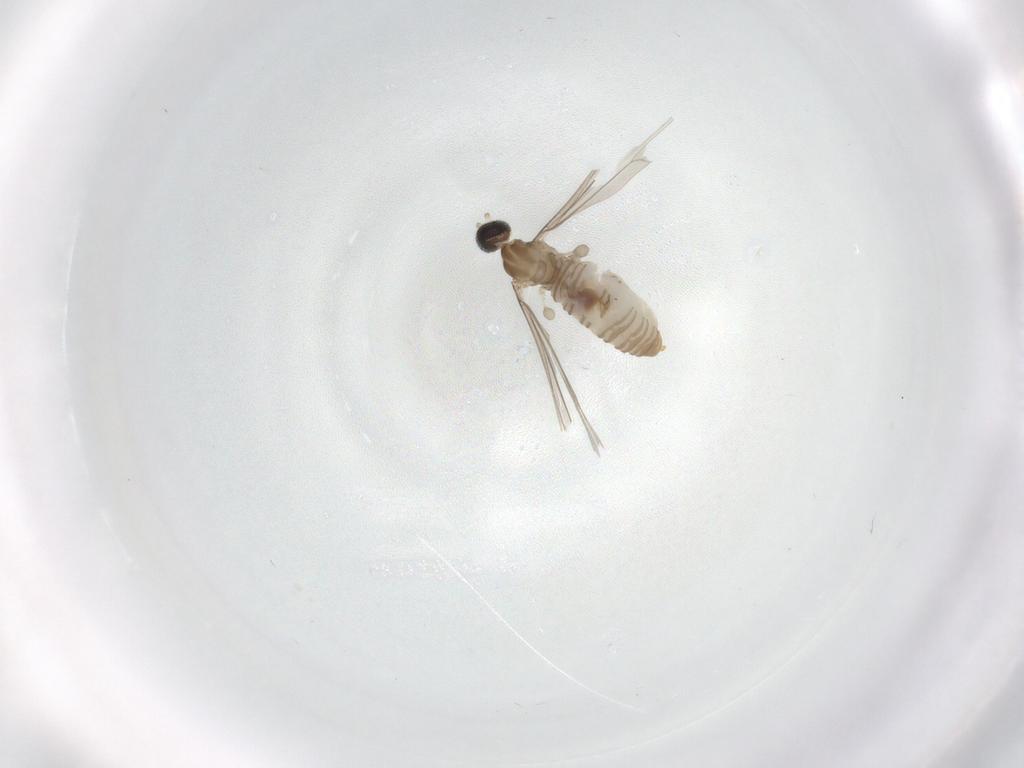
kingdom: Animalia
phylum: Arthropoda
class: Insecta
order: Diptera
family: Cecidomyiidae
